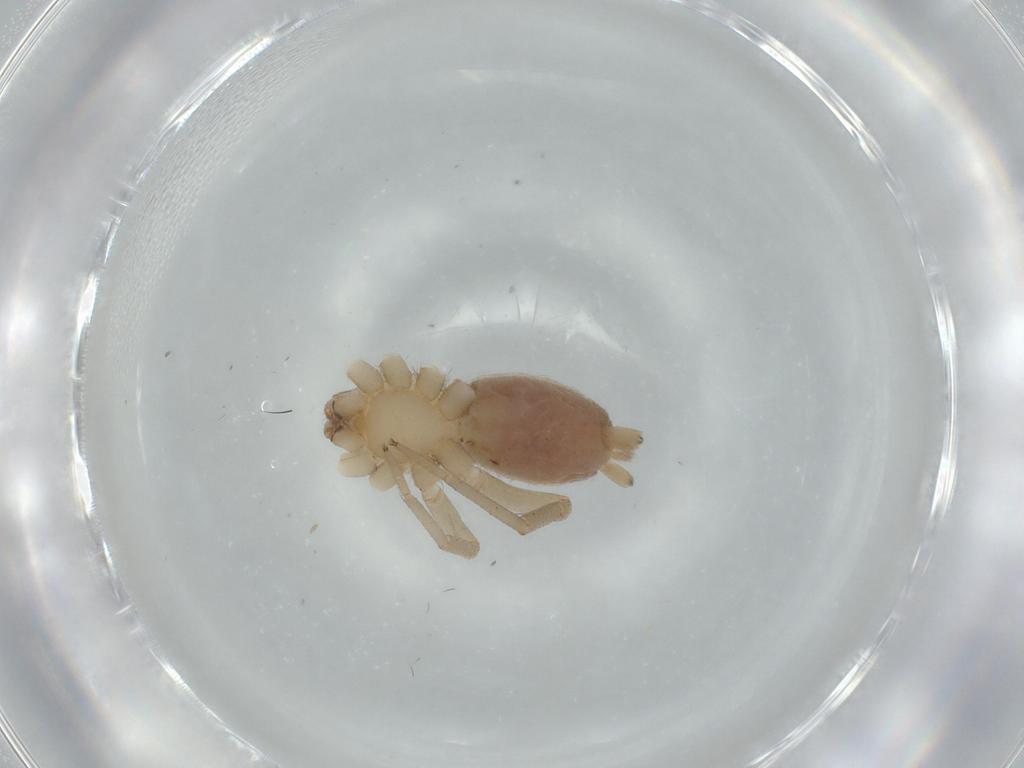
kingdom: Animalia
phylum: Arthropoda
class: Arachnida
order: Araneae
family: Gnaphosidae
